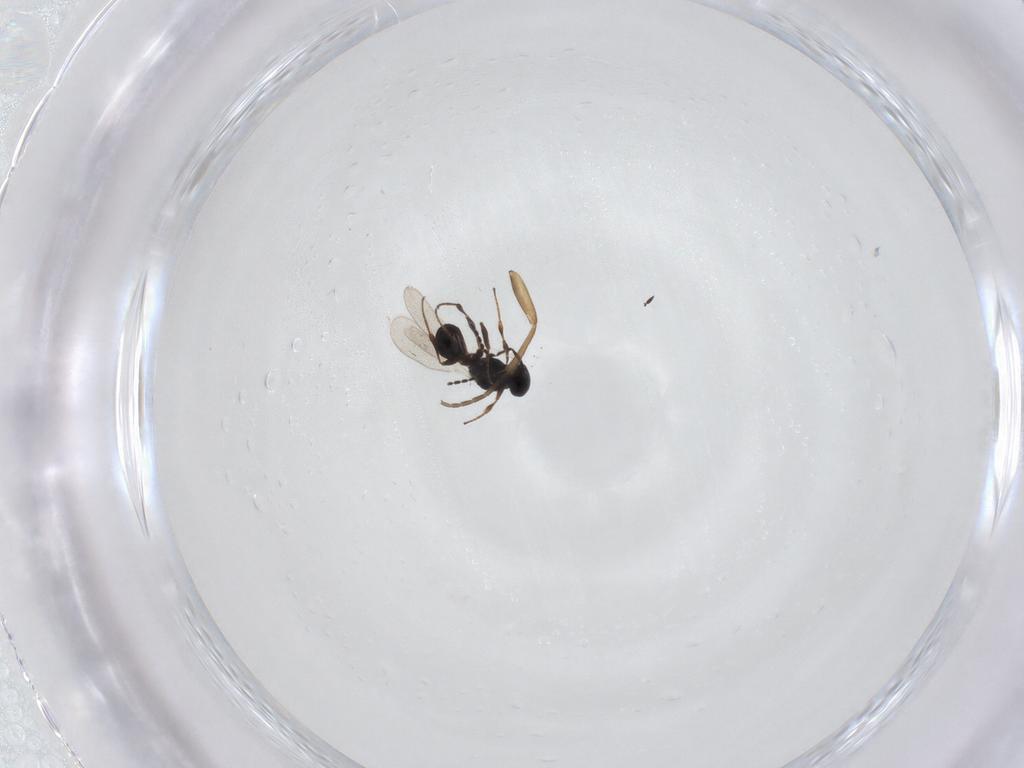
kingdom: Animalia
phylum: Arthropoda
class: Insecta
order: Hymenoptera
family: Platygastridae
